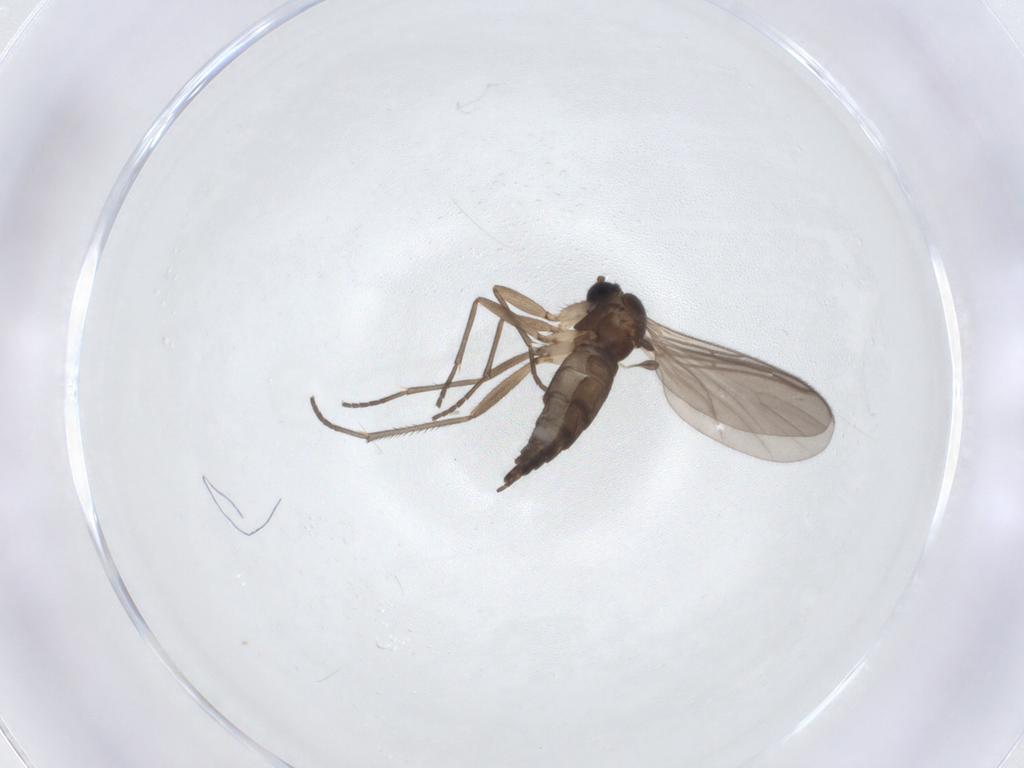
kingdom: Animalia
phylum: Arthropoda
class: Insecta
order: Diptera
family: Sciaridae
